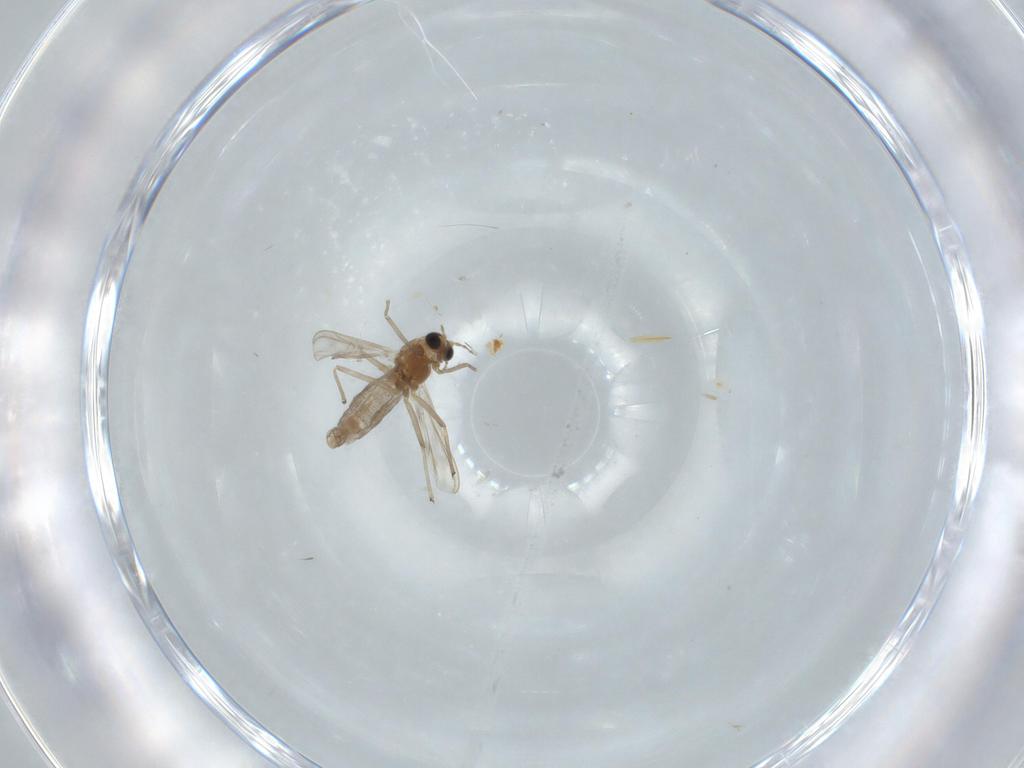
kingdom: Animalia
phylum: Arthropoda
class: Insecta
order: Diptera
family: Chironomidae
